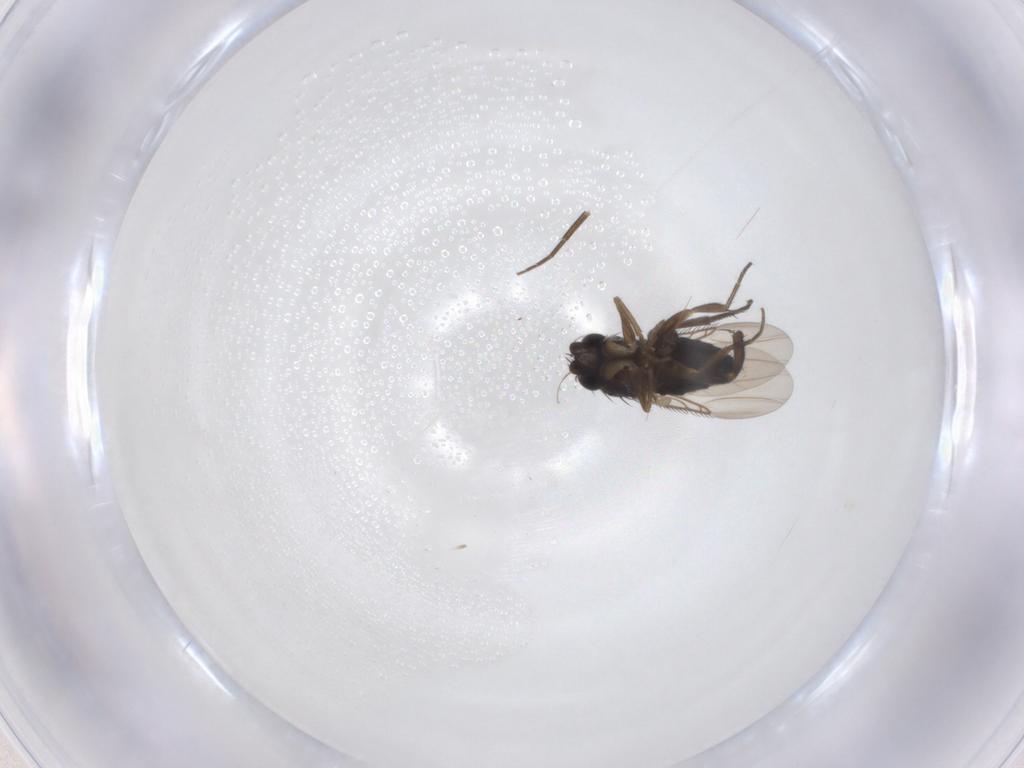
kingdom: Animalia
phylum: Arthropoda
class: Insecta
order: Diptera
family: Phoridae
